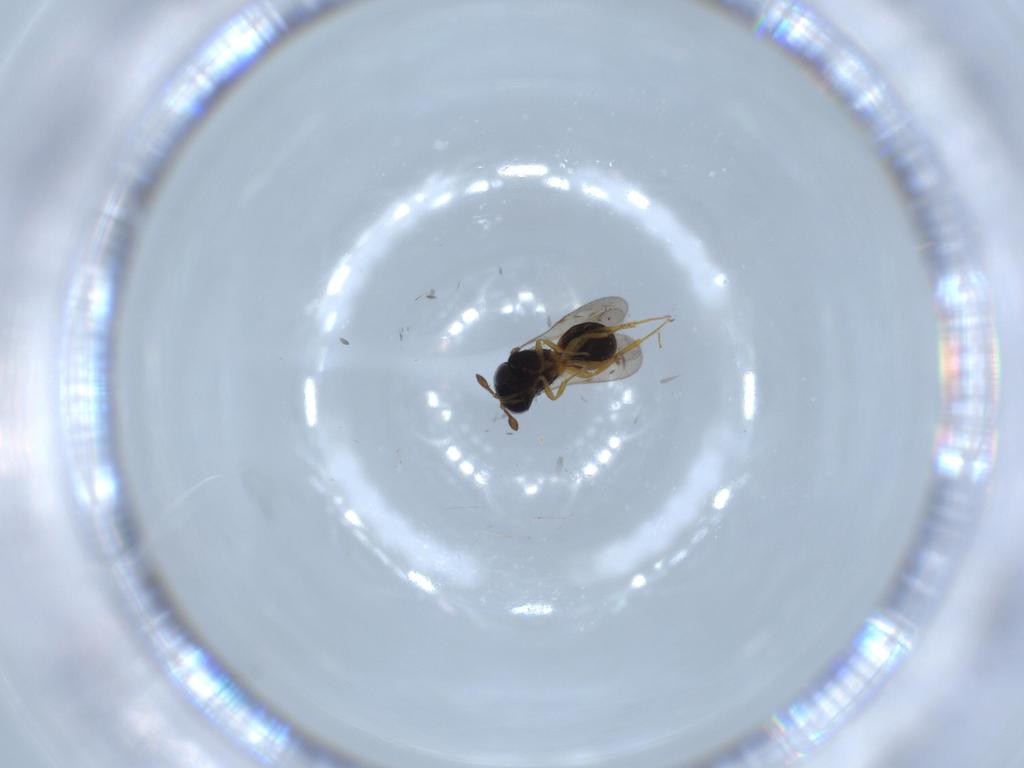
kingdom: Animalia
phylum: Arthropoda
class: Insecta
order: Hymenoptera
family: Scelionidae
